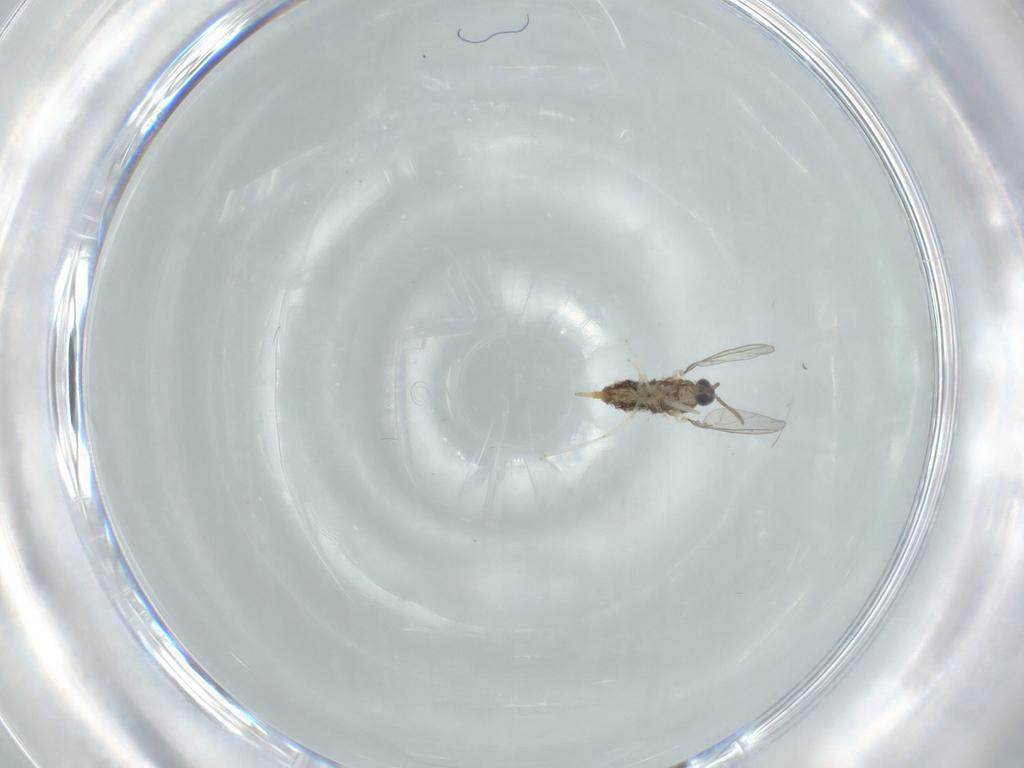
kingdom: Animalia
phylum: Arthropoda
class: Insecta
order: Diptera
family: Cecidomyiidae
